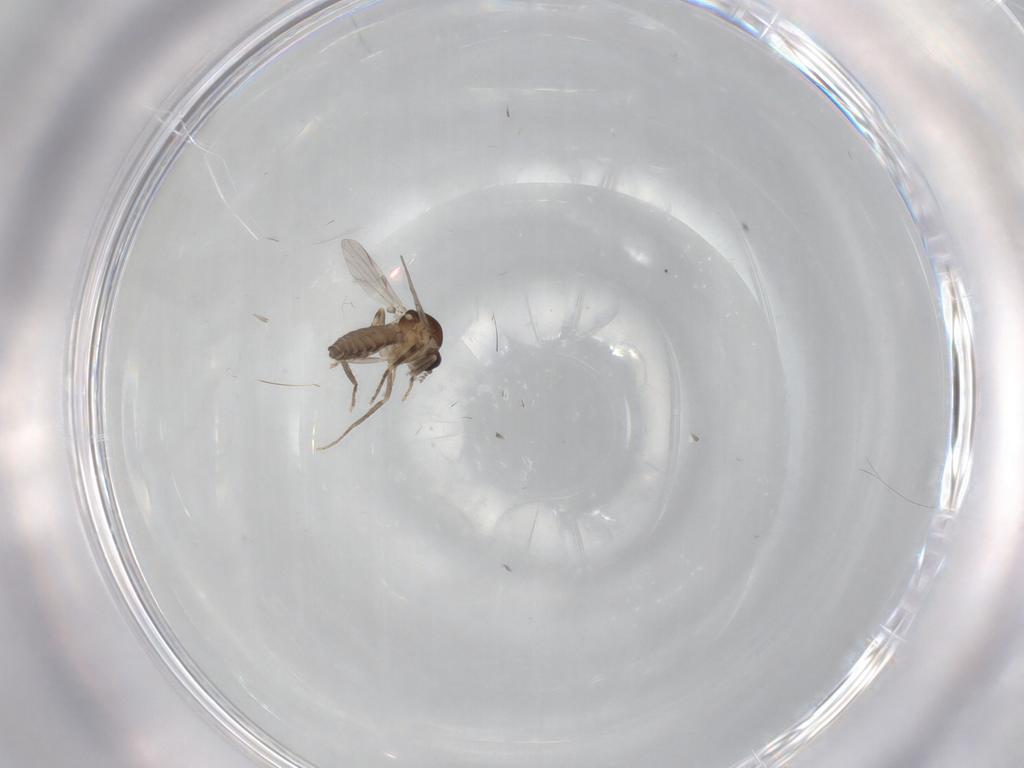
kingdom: Animalia
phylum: Arthropoda
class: Insecta
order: Diptera
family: Ceratopogonidae
